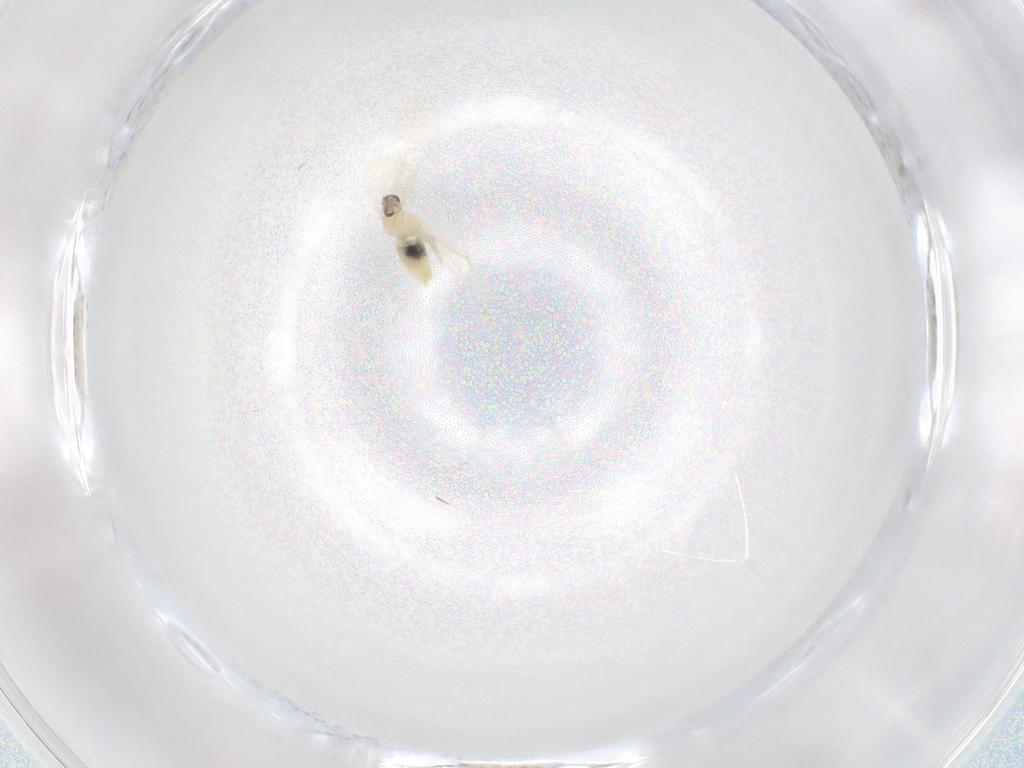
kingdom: Animalia
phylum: Arthropoda
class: Insecta
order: Diptera
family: Cecidomyiidae
